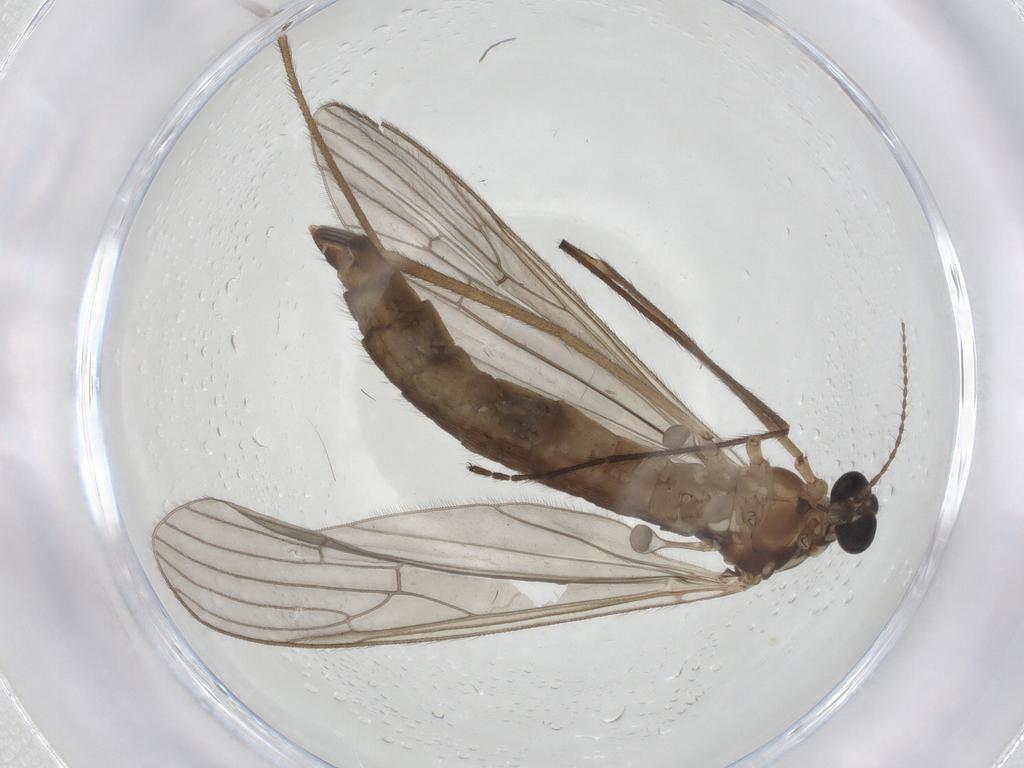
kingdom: Animalia
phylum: Arthropoda
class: Insecta
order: Diptera
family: Limoniidae
